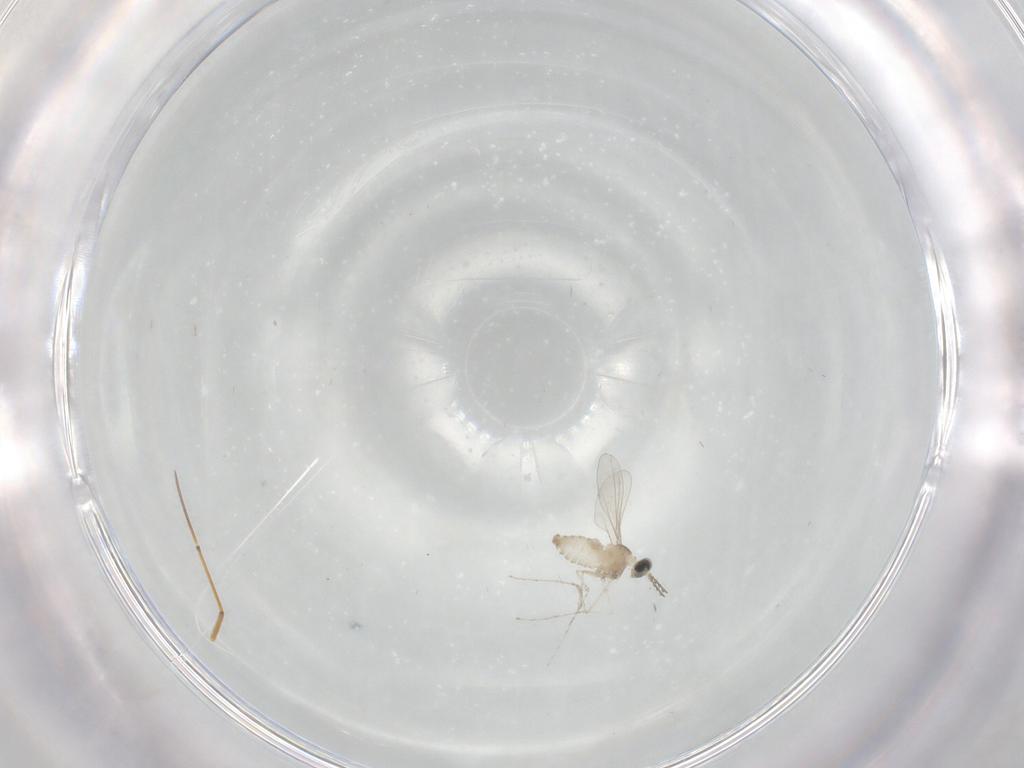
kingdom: Animalia
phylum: Arthropoda
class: Insecta
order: Diptera
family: Cecidomyiidae
